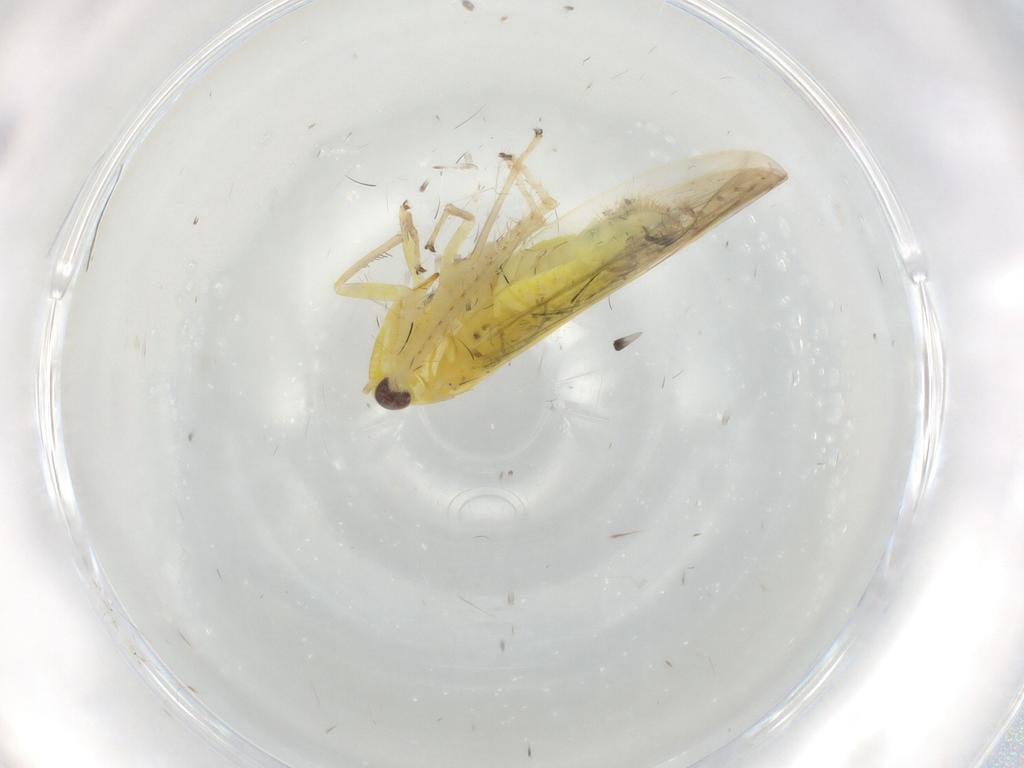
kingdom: Animalia
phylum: Arthropoda
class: Insecta
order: Hemiptera
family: Cicadellidae
